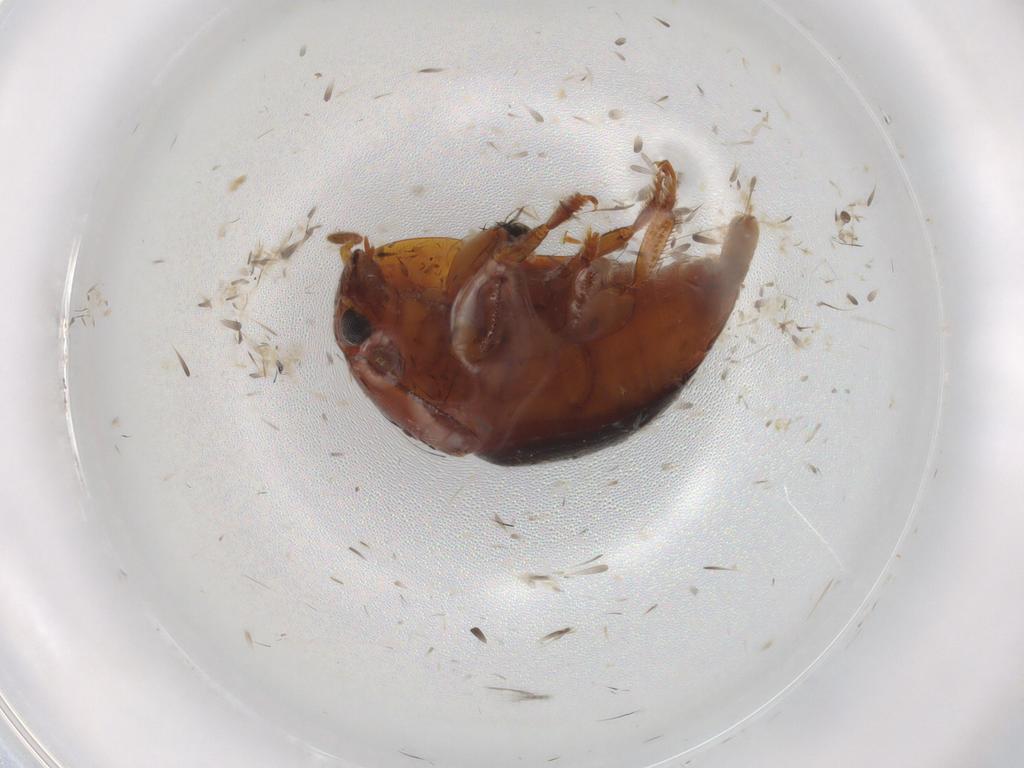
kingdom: Animalia
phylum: Arthropoda
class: Insecta
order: Coleoptera
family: Nitidulidae
